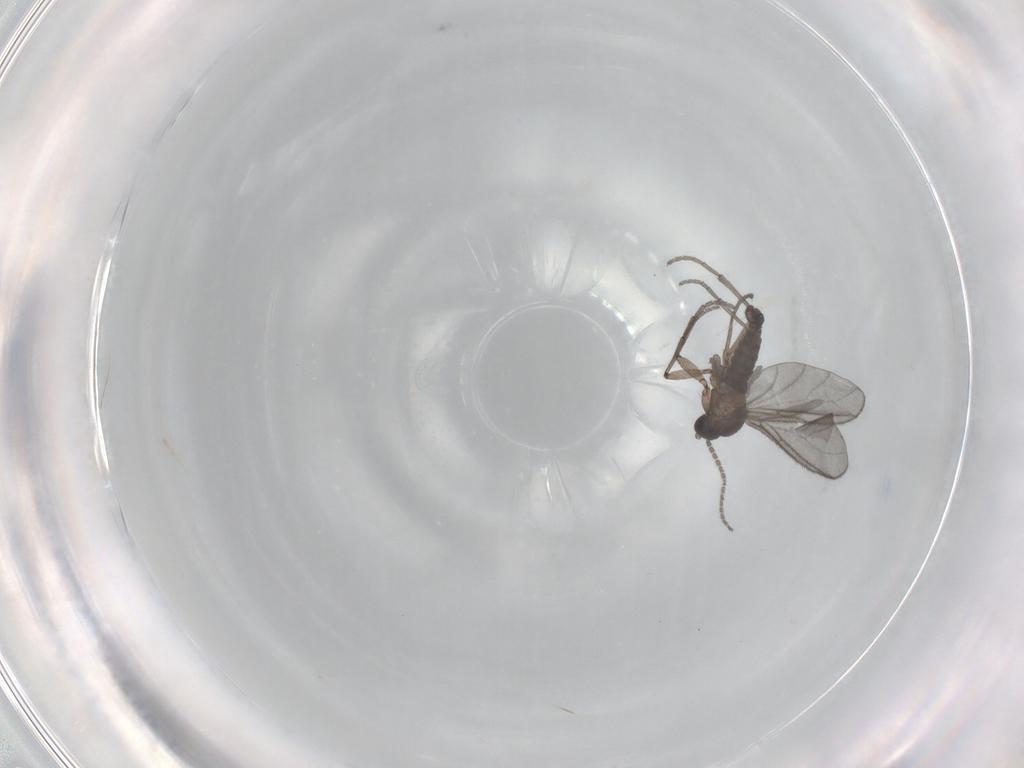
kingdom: Animalia
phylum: Arthropoda
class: Insecta
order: Diptera
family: Sciaridae
